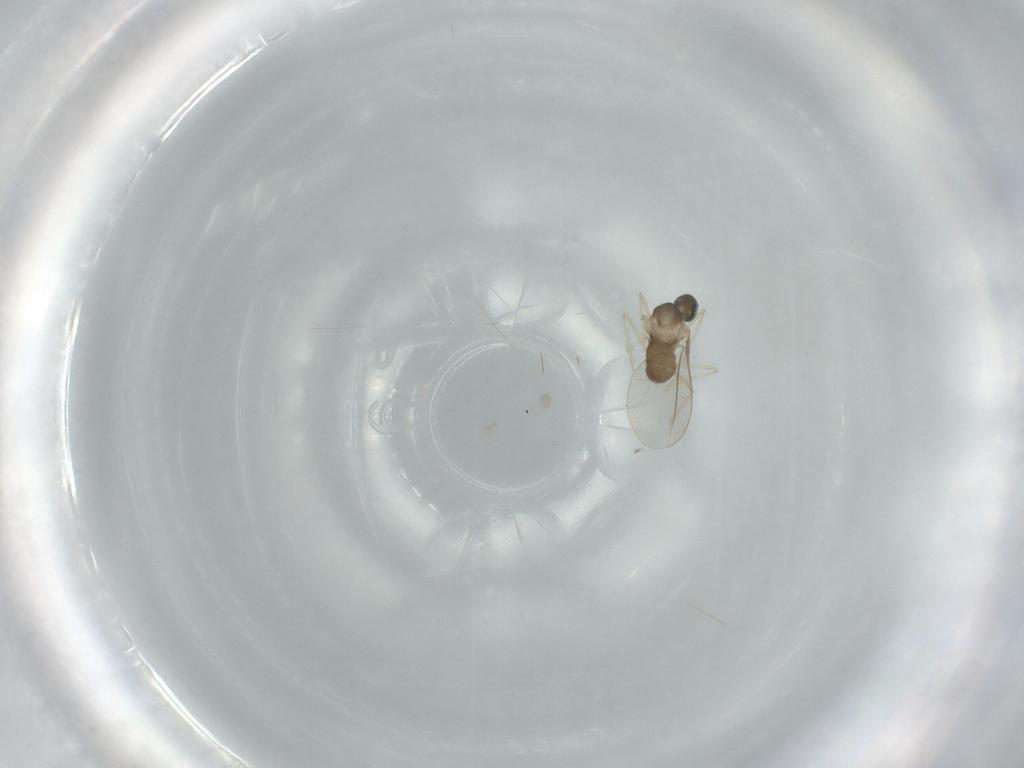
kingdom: Animalia
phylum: Arthropoda
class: Insecta
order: Diptera
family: Cecidomyiidae
